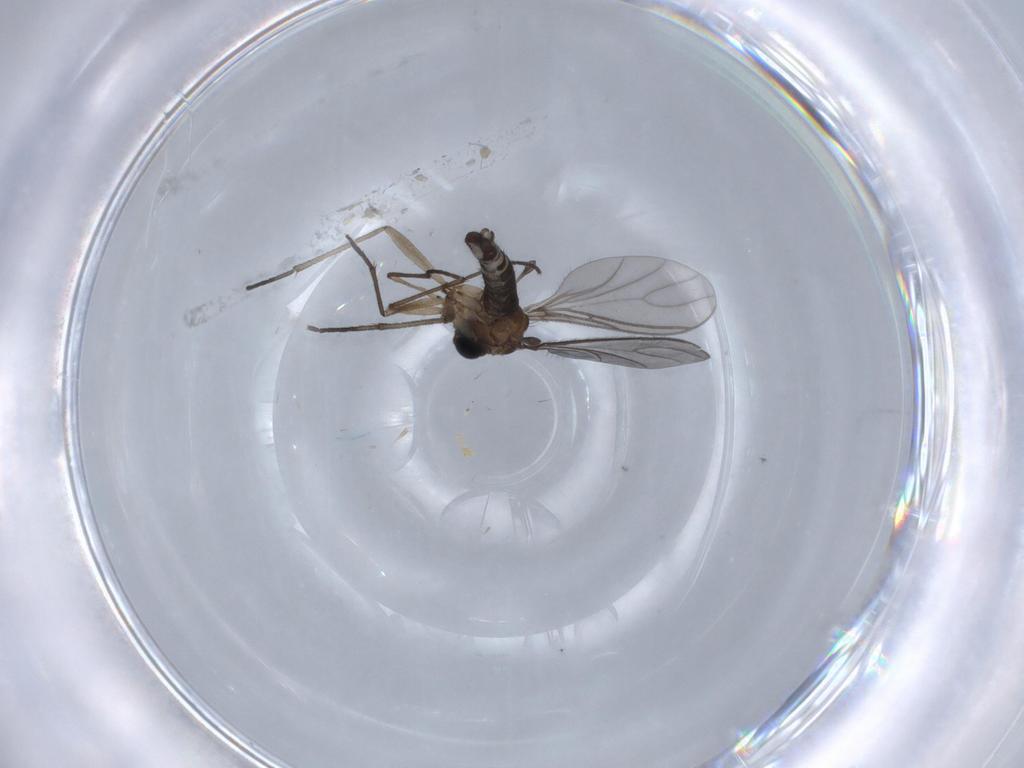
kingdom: Animalia
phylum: Arthropoda
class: Insecta
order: Diptera
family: Sciaridae
